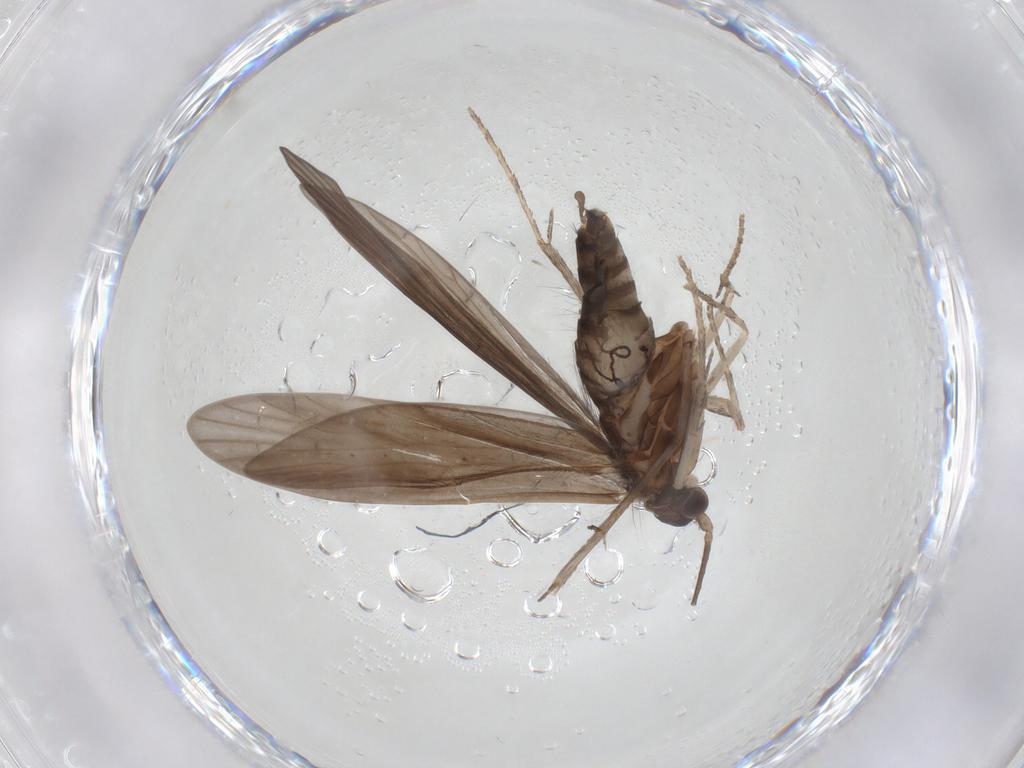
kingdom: Animalia
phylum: Arthropoda
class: Insecta
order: Trichoptera
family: Xiphocentronidae
